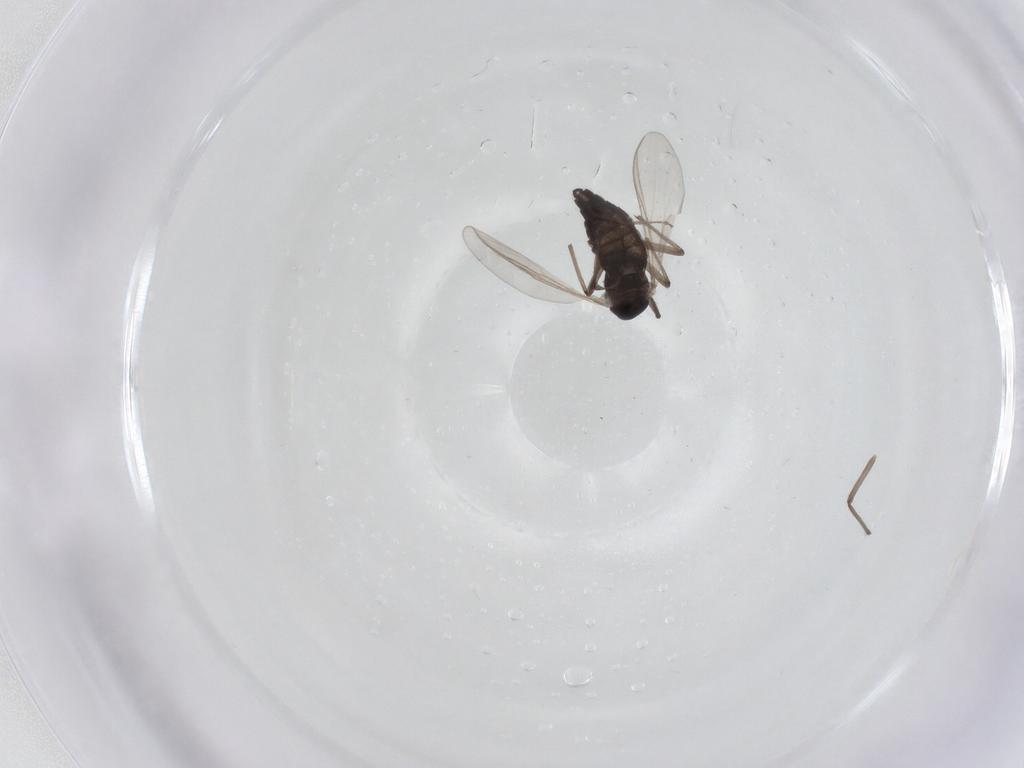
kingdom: Animalia
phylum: Arthropoda
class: Insecta
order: Diptera
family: Chironomidae
